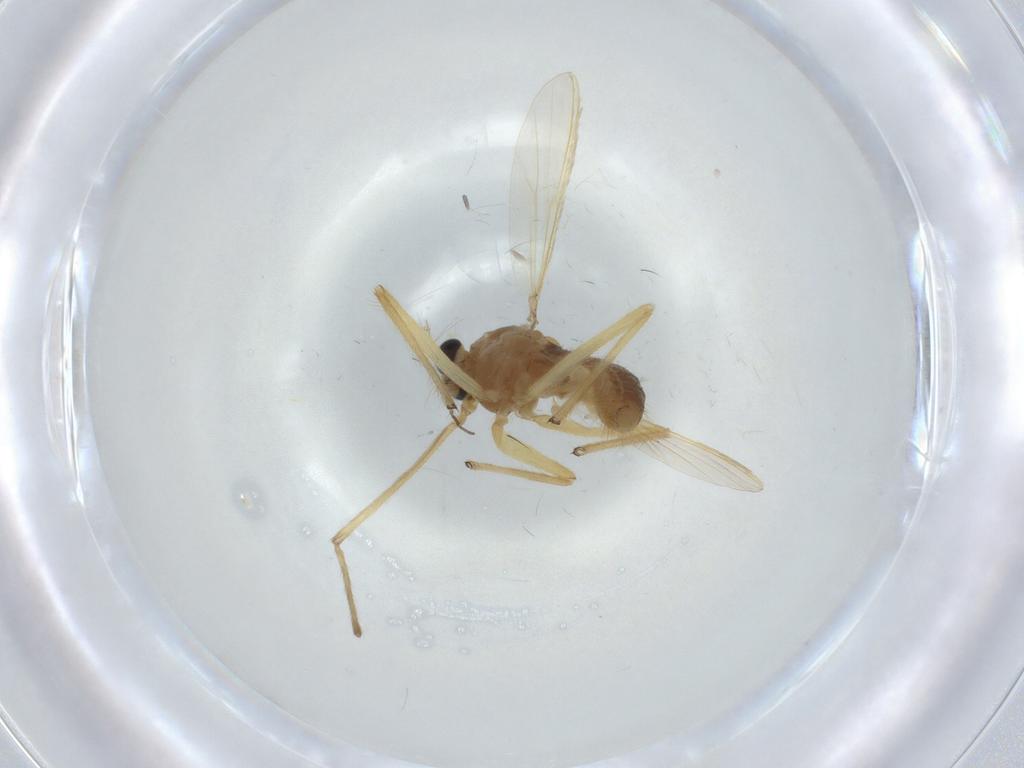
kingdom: Animalia
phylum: Arthropoda
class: Insecta
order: Diptera
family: Chironomidae
